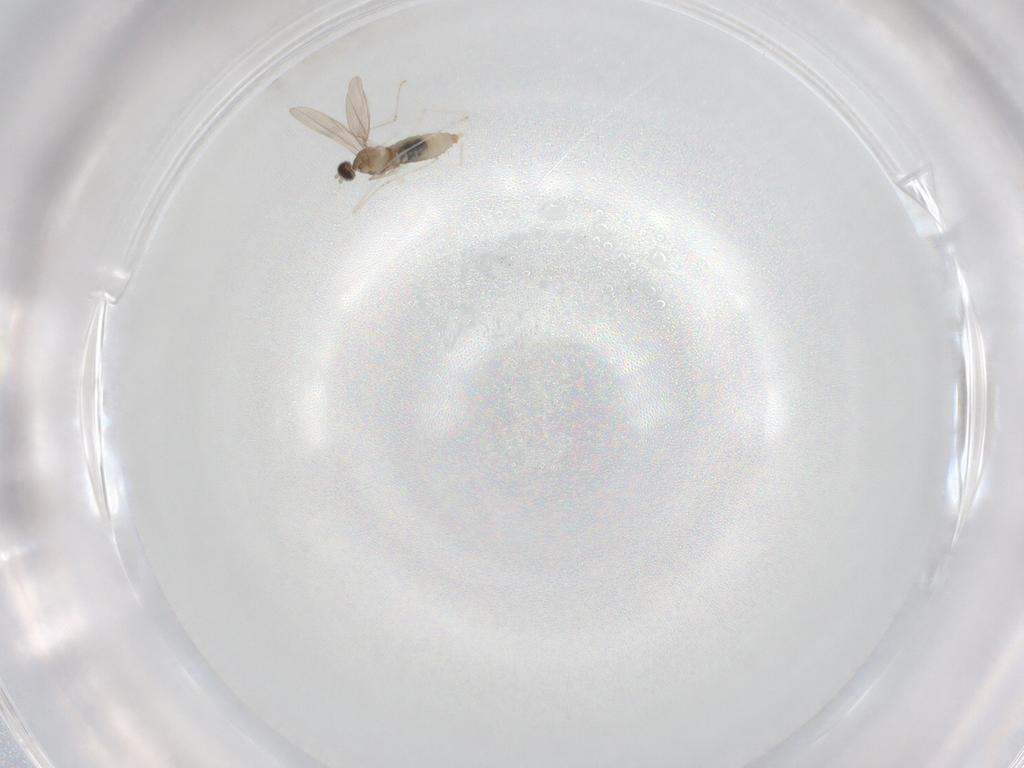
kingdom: Animalia
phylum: Arthropoda
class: Insecta
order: Diptera
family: Cecidomyiidae
